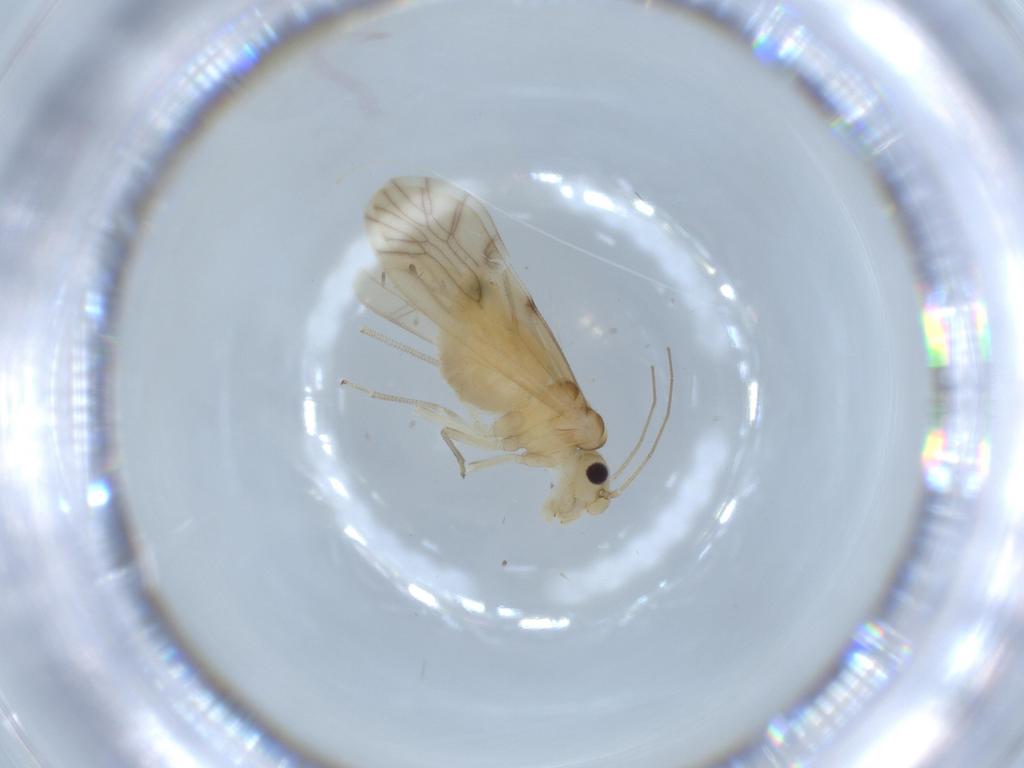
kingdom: Animalia
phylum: Arthropoda
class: Insecta
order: Psocodea
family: Caeciliusidae
